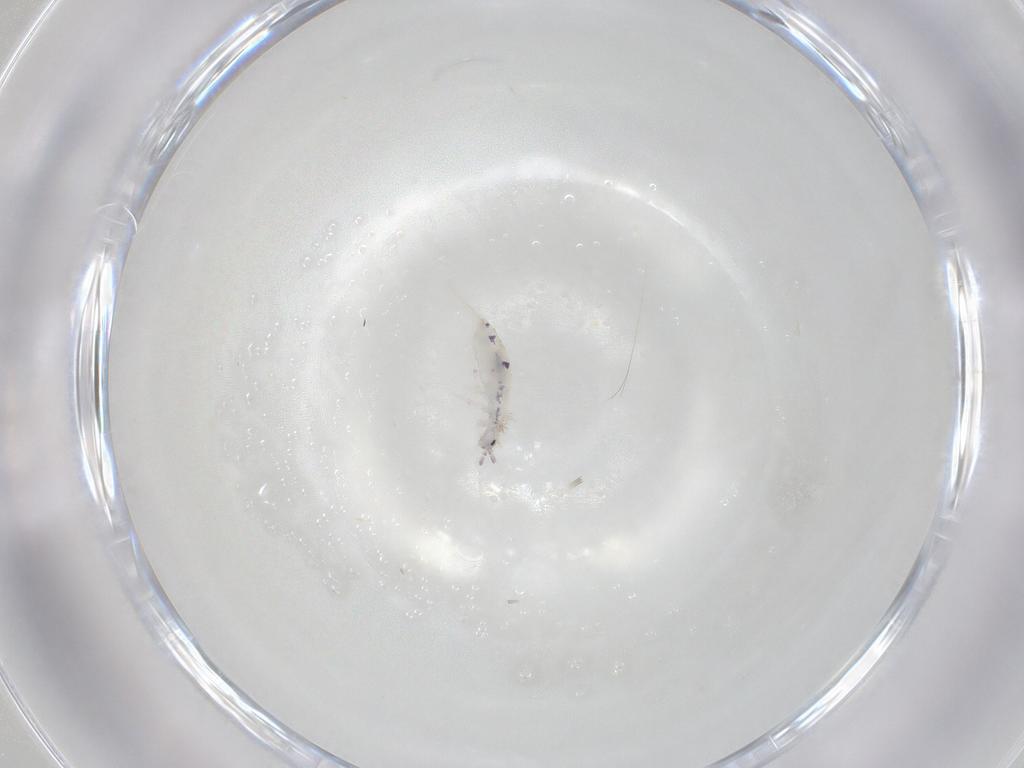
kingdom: Animalia
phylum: Arthropoda
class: Collembola
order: Entomobryomorpha
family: Entomobryidae
